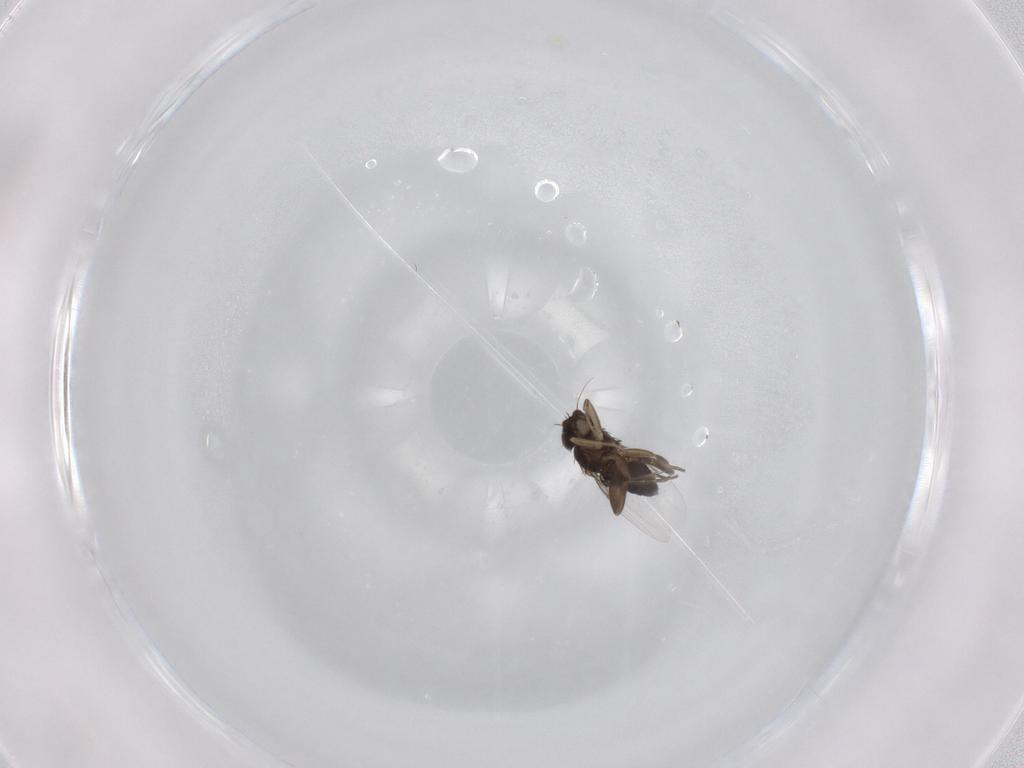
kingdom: Animalia
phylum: Arthropoda
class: Insecta
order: Diptera
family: Phoridae
